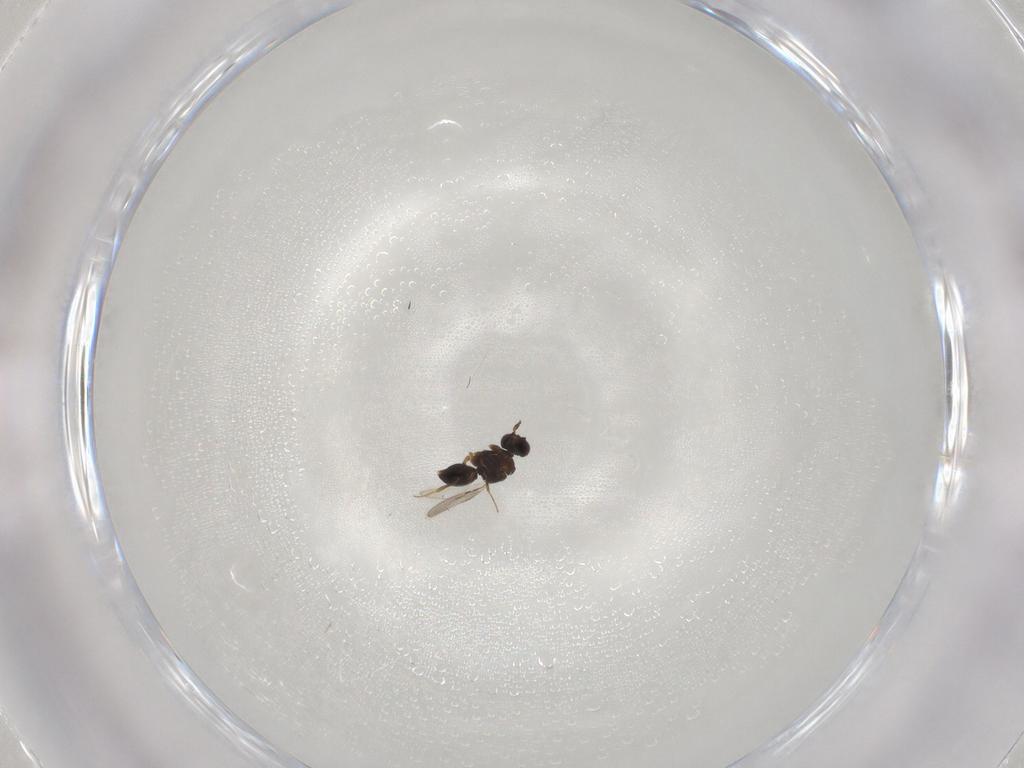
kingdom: Animalia
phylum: Arthropoda
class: Insecta
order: Hymenoptera
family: Ceraphronidae
